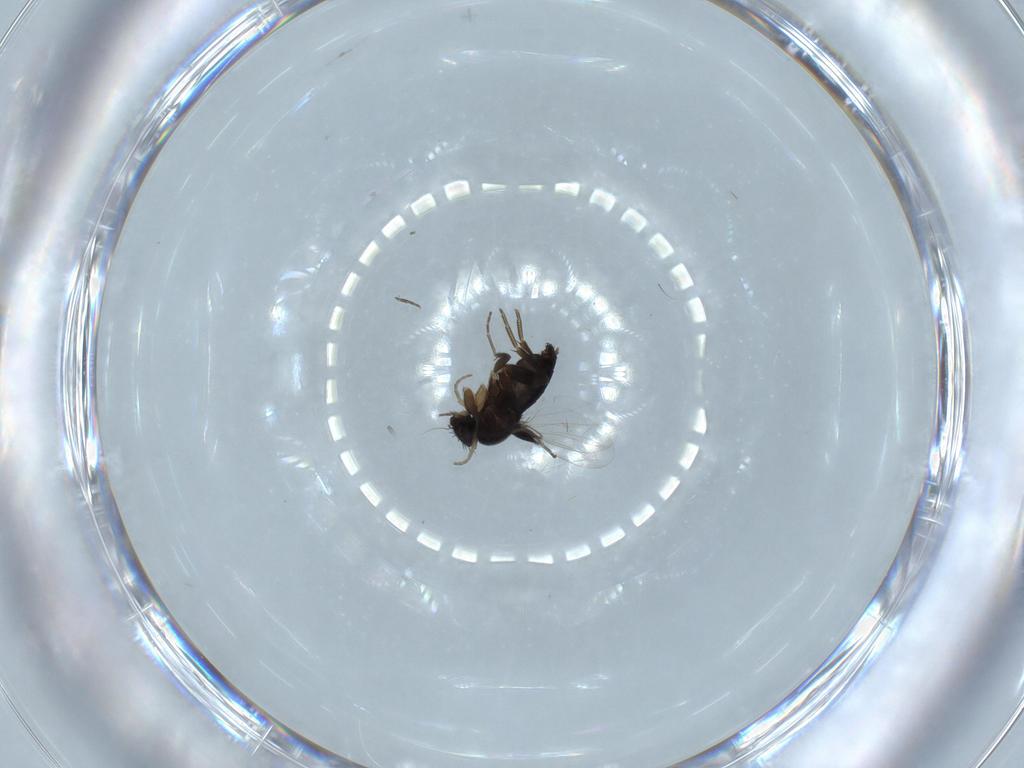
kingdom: Animalia
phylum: Arthropoda
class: Insecta
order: Diptera
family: Phoridae
